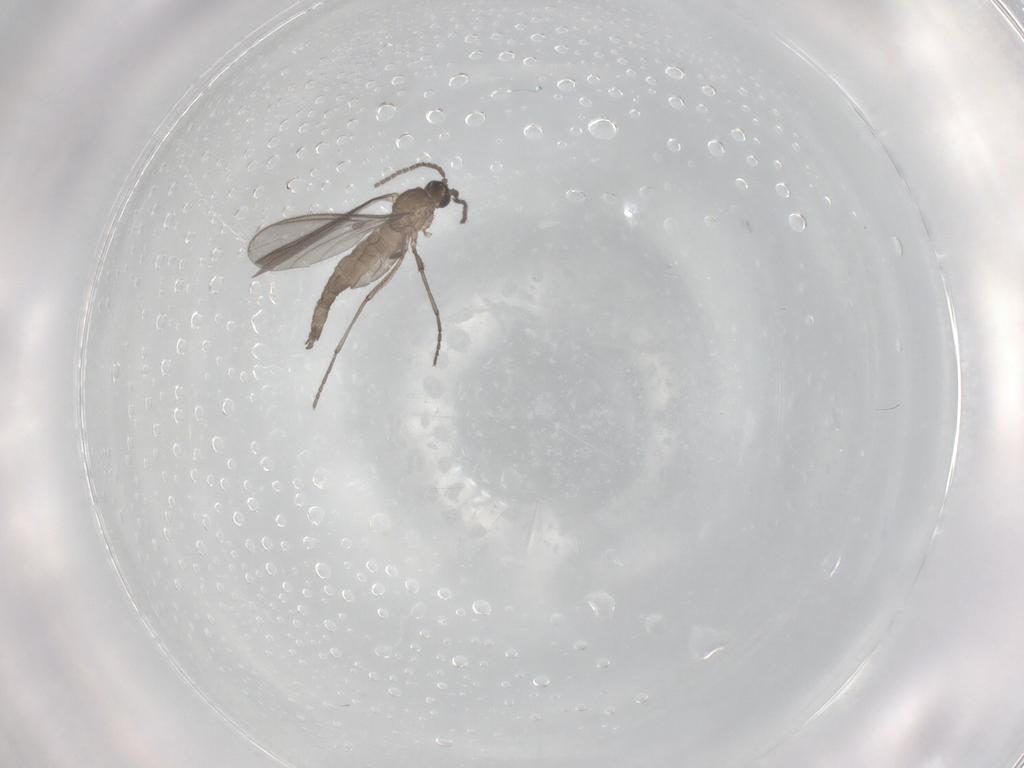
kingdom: Animalia
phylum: Arthropoda
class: Insecta
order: Diptera
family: Sciaridae
